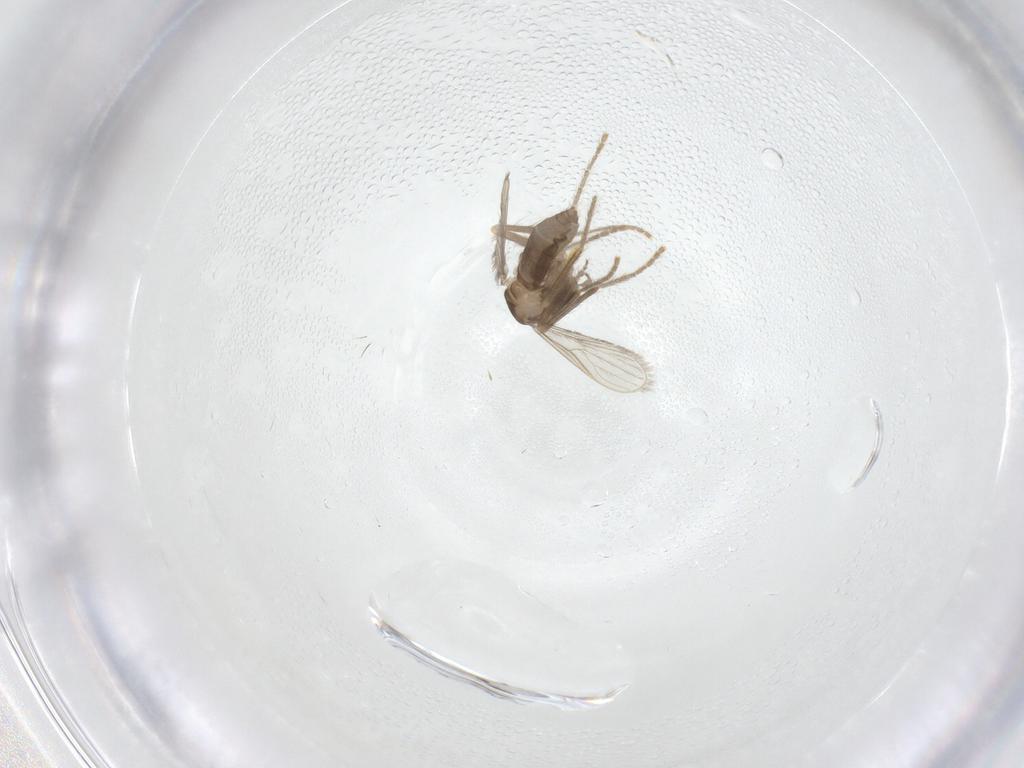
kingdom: Animalia
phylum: Arthropoda
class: Insecta
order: Diptera
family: Corethrellidae
